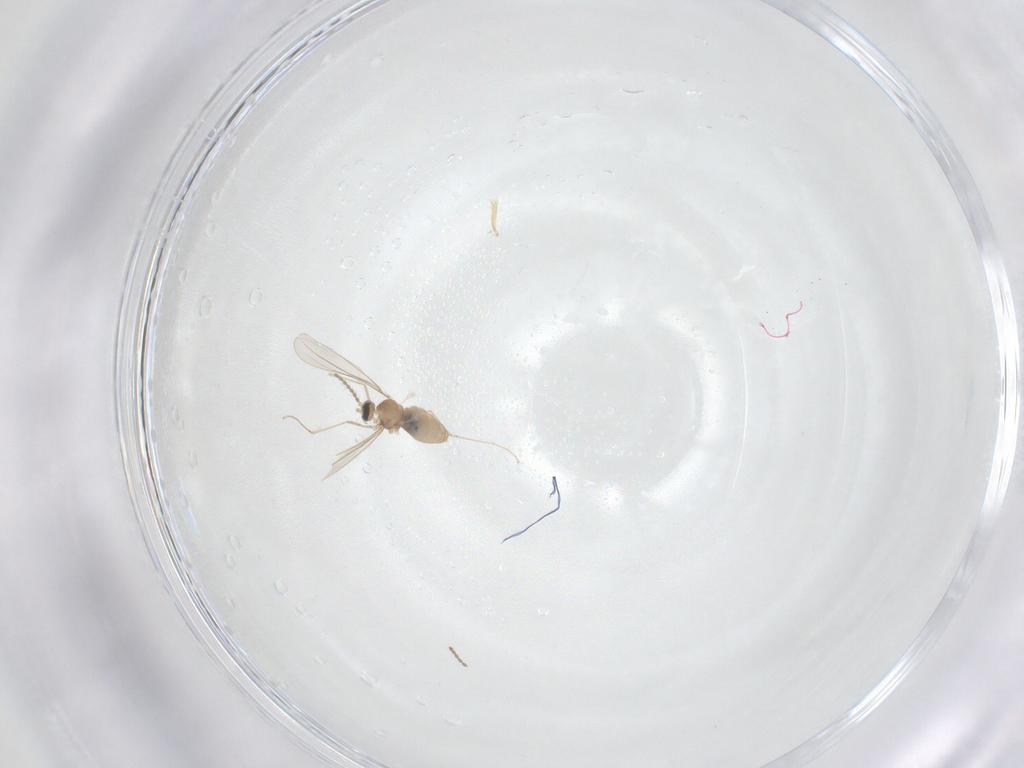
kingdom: Animalia
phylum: Arthropoda
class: Insecta
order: Diptera
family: Cecidomyiidae
